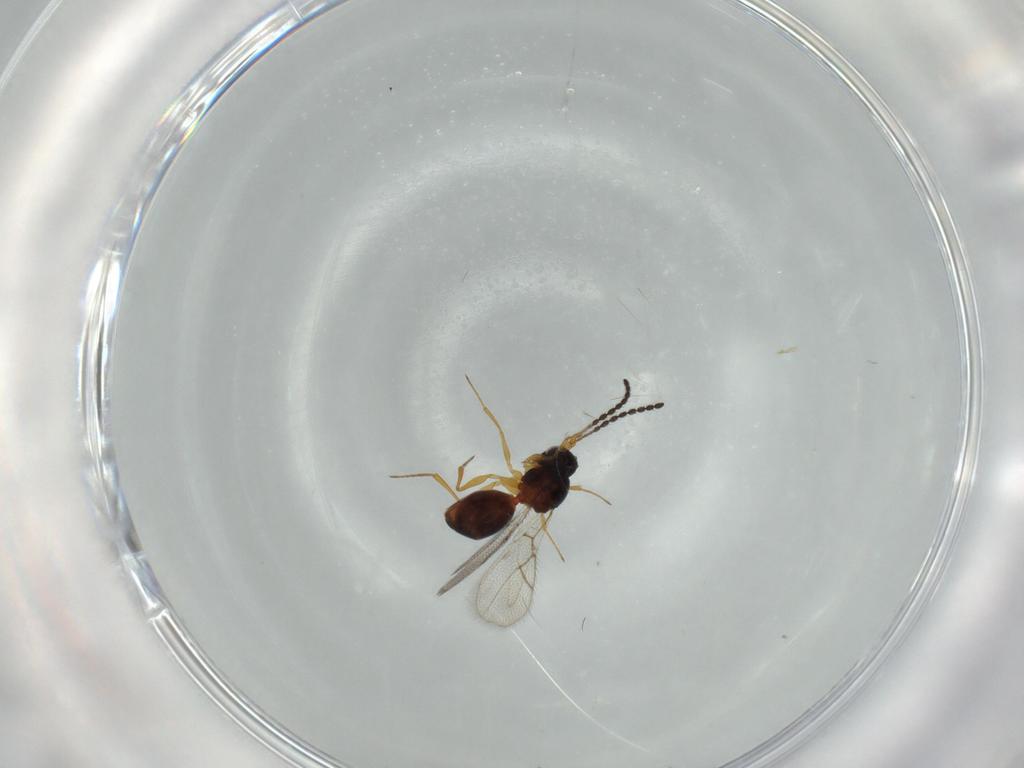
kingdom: Animalia
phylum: Arthropoda
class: Insecta
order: Hymenoptera
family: Figitidae
